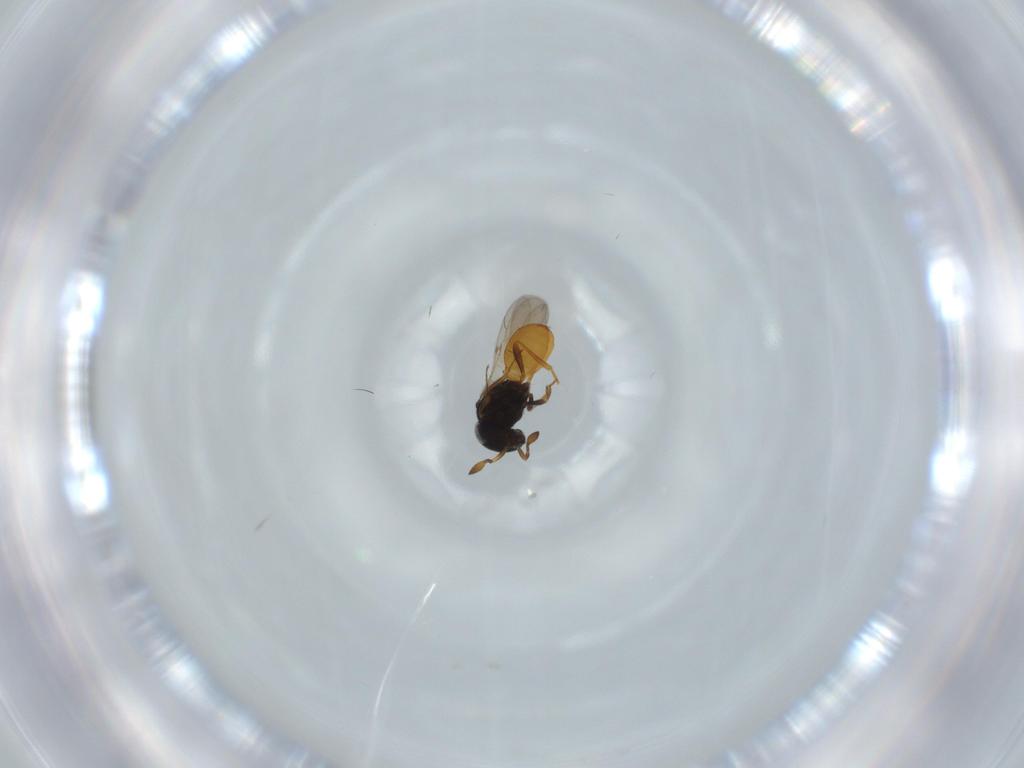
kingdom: Animalia
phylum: Arthropoda
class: Insecta
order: Hymenoptera
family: Scelionidae
